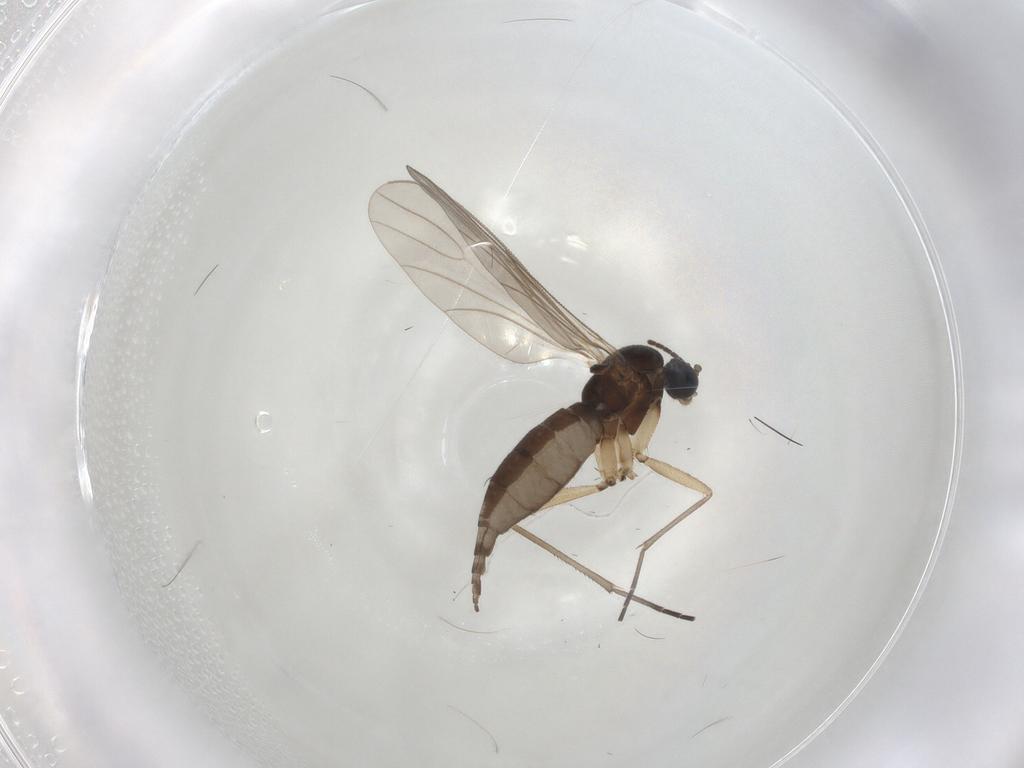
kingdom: Animalia
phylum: Arthropoda
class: Insecta
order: Diptera
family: Sciaridae
